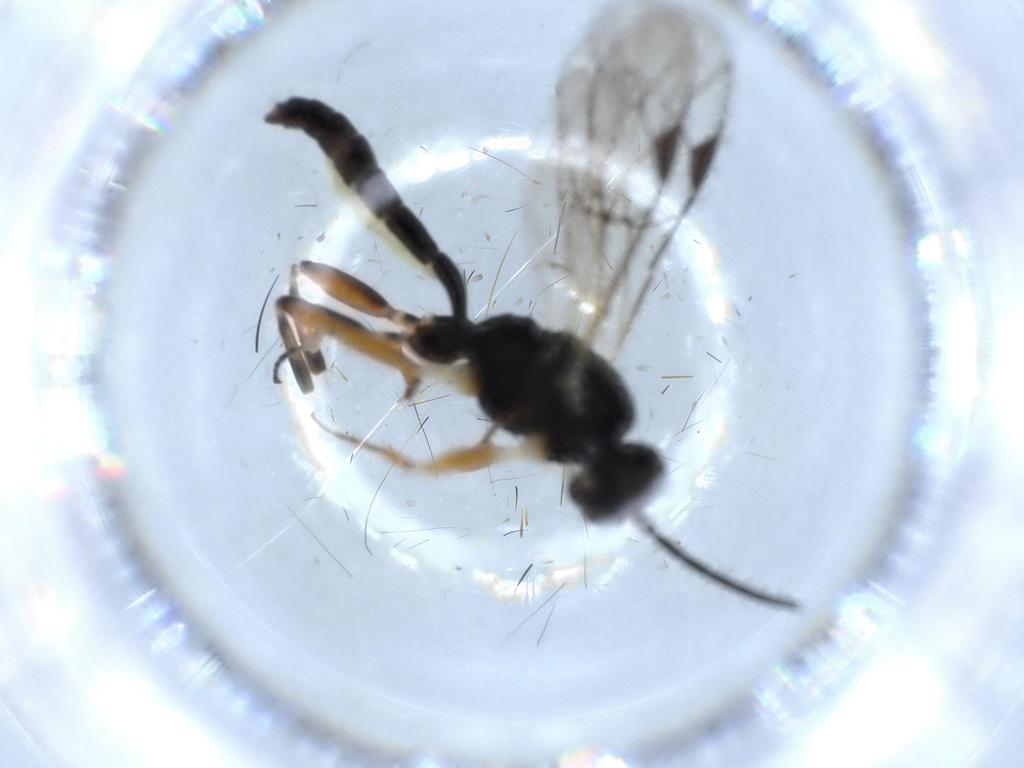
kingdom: Animalia
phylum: Arthropoda
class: Insecta
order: Hymenoptera
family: Ichneumonidae
